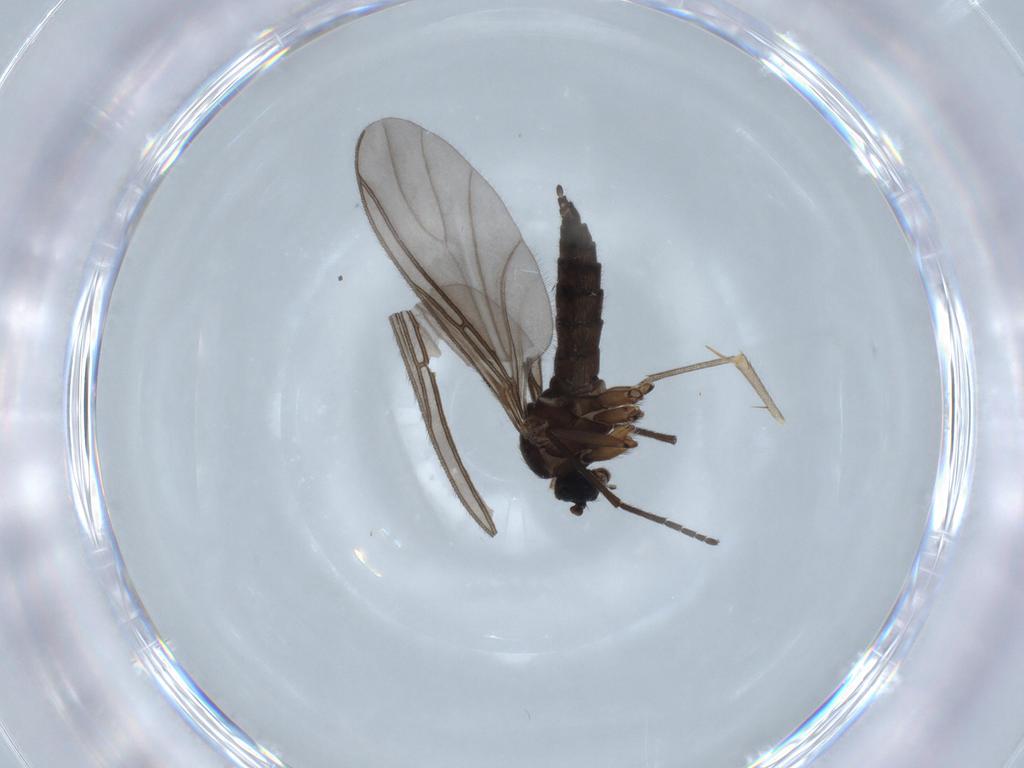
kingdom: Animalia
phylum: Arthropoda
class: Insecta
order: Diptera
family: Sciaridae
